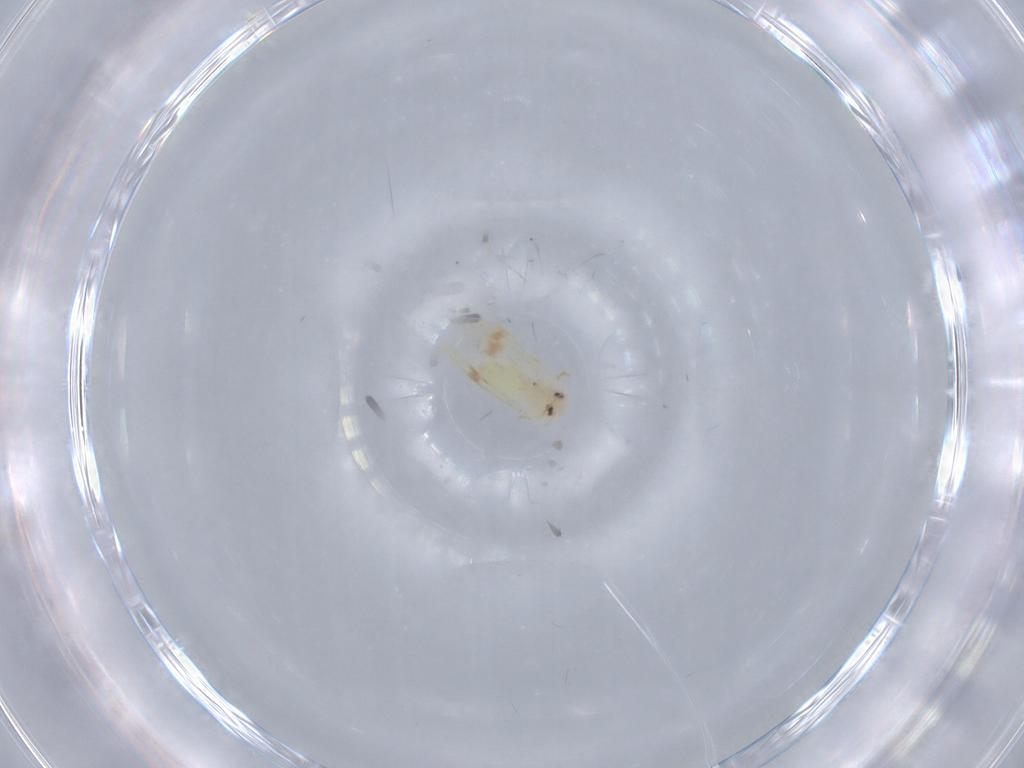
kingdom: Animalia
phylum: Arthropoda
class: Insecta
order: Hemiptera
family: Aleyrodidae
